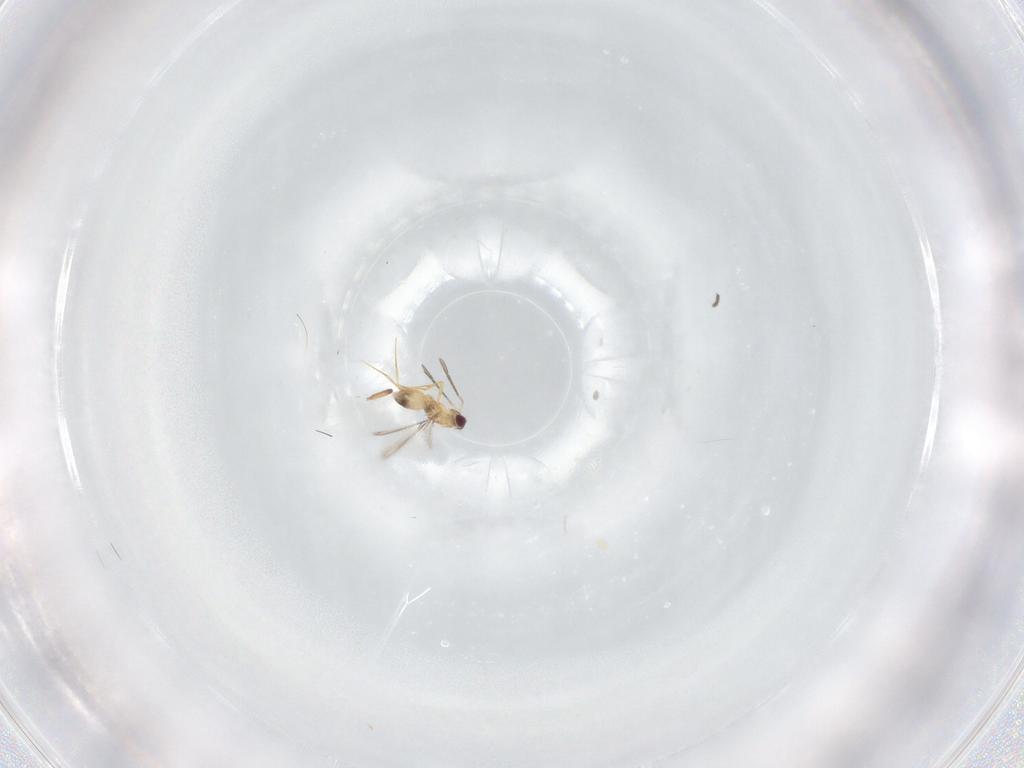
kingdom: Animalia
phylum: Arthropoda
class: Insecta
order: Hymenoptera
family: Mymaridae
